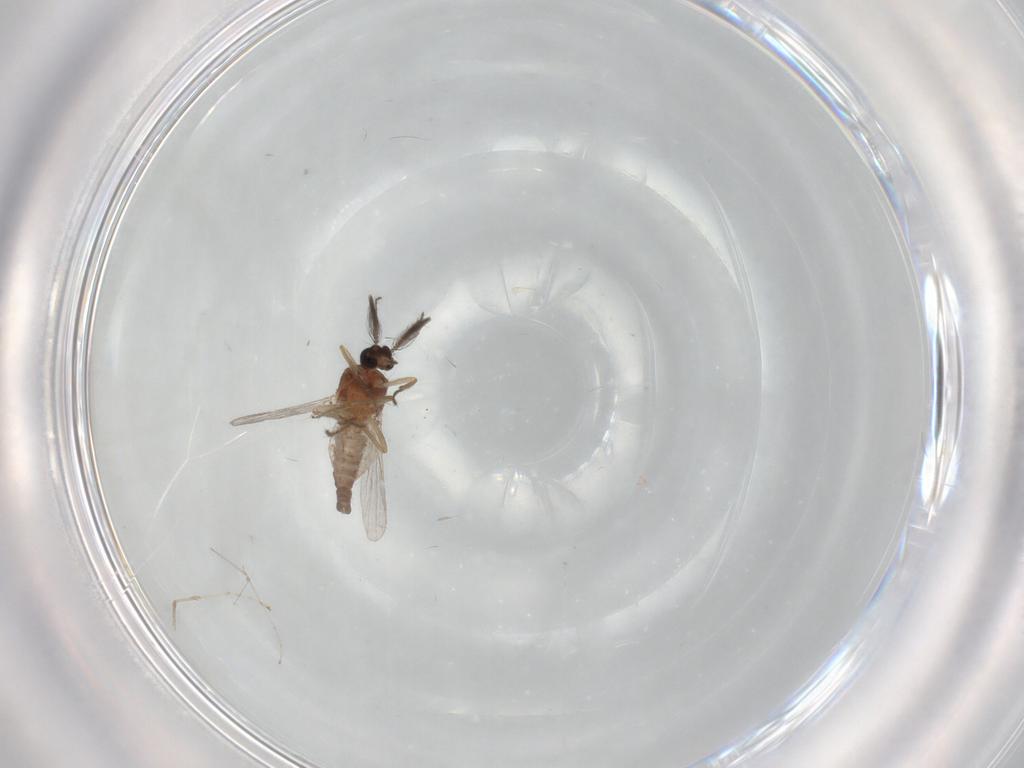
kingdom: Animalia
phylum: Arthropoda
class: Insecta
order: Diptera
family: Ceratopogonidae
